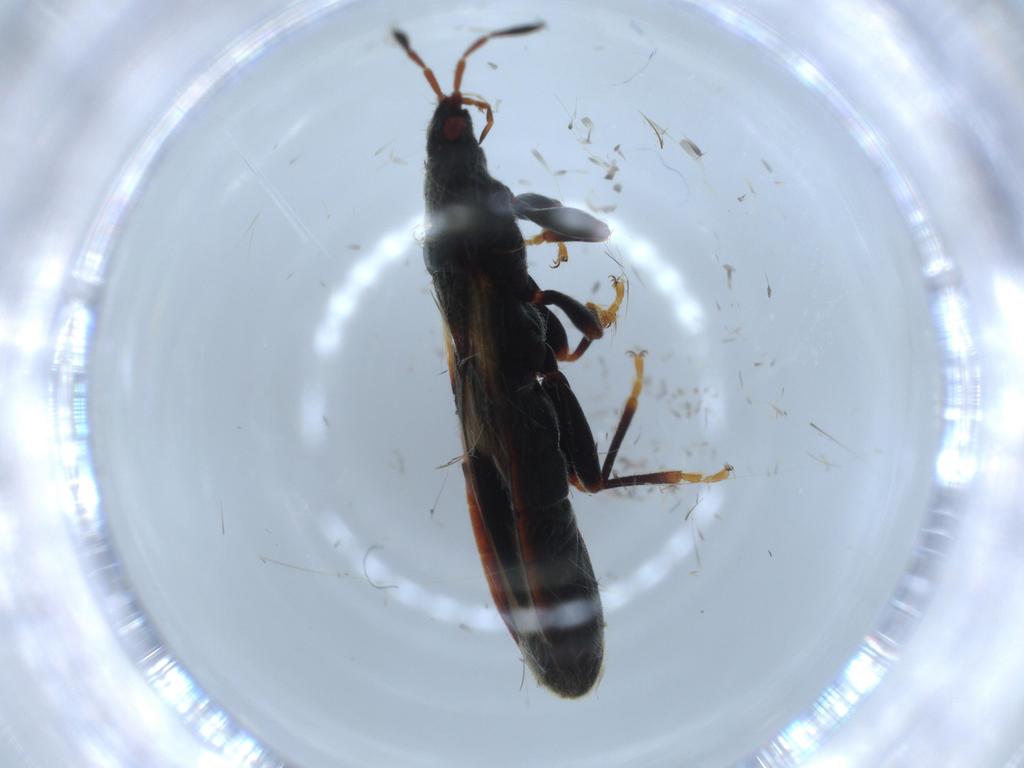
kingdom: Animalia
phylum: Arthropoda
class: Insecta
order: Hemiptera
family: Blissidae
